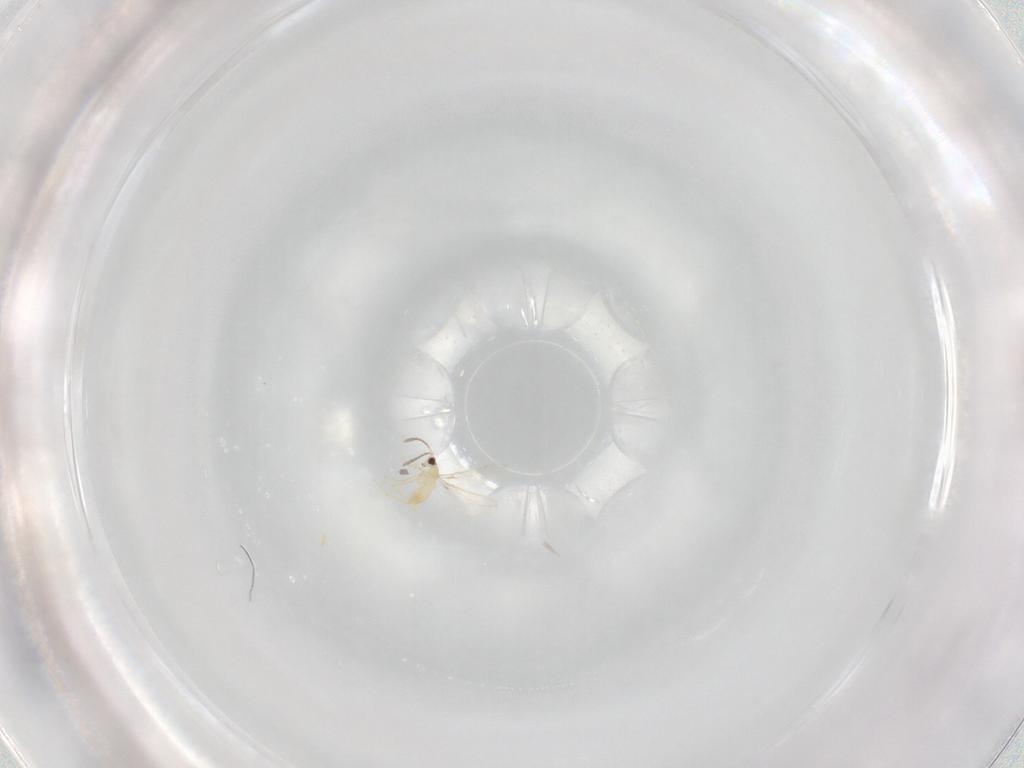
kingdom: Animalia
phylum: Arthropoda
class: Insecta
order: Hymenoptera
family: Mymaridae
